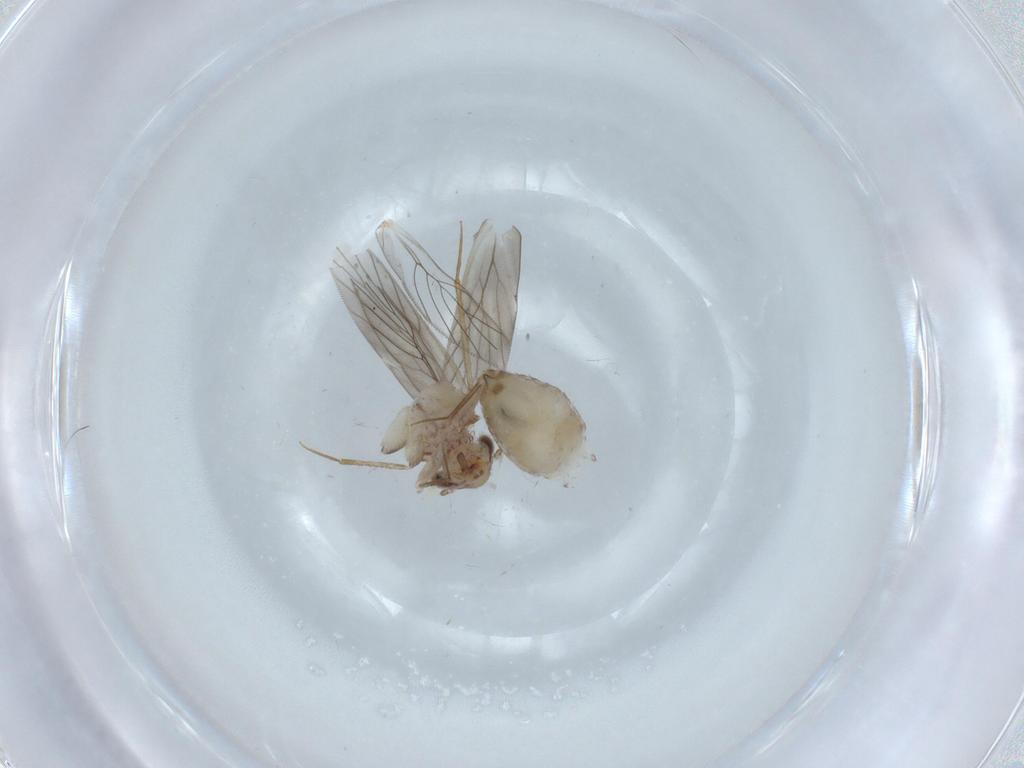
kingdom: Animalia
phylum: Arthropoda
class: Insecta
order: Psocodea
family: Lepidopsocidae
